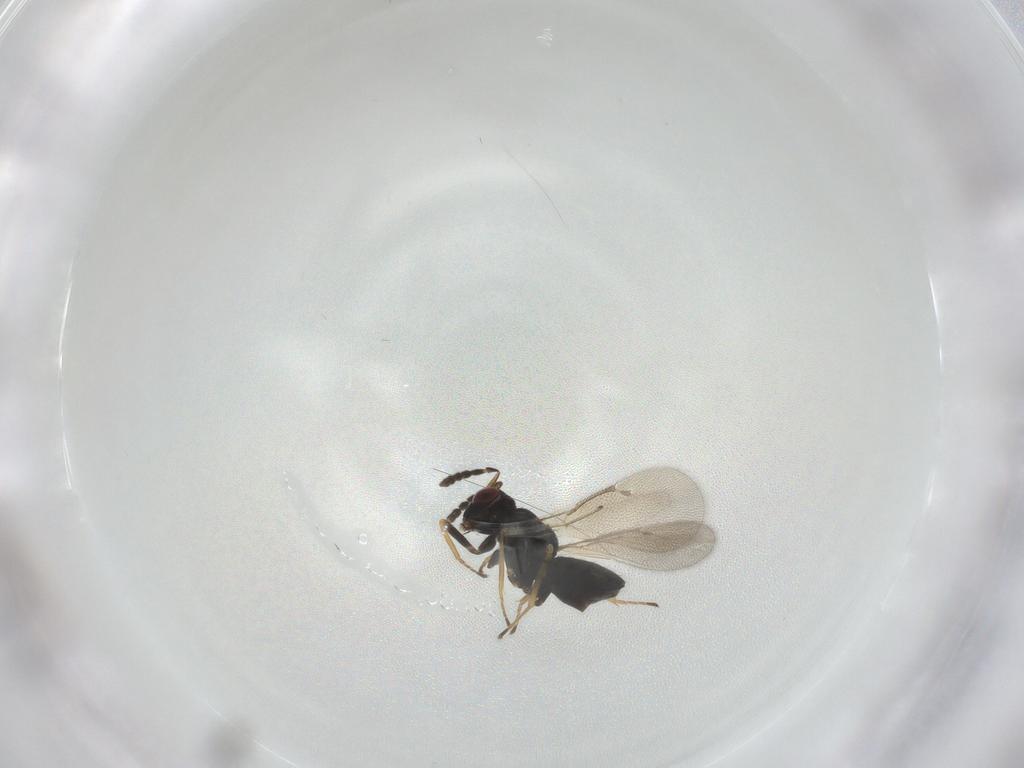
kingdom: Animalia
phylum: Arthropoda
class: Insecta
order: Hymenoptera
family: Eulophidae
